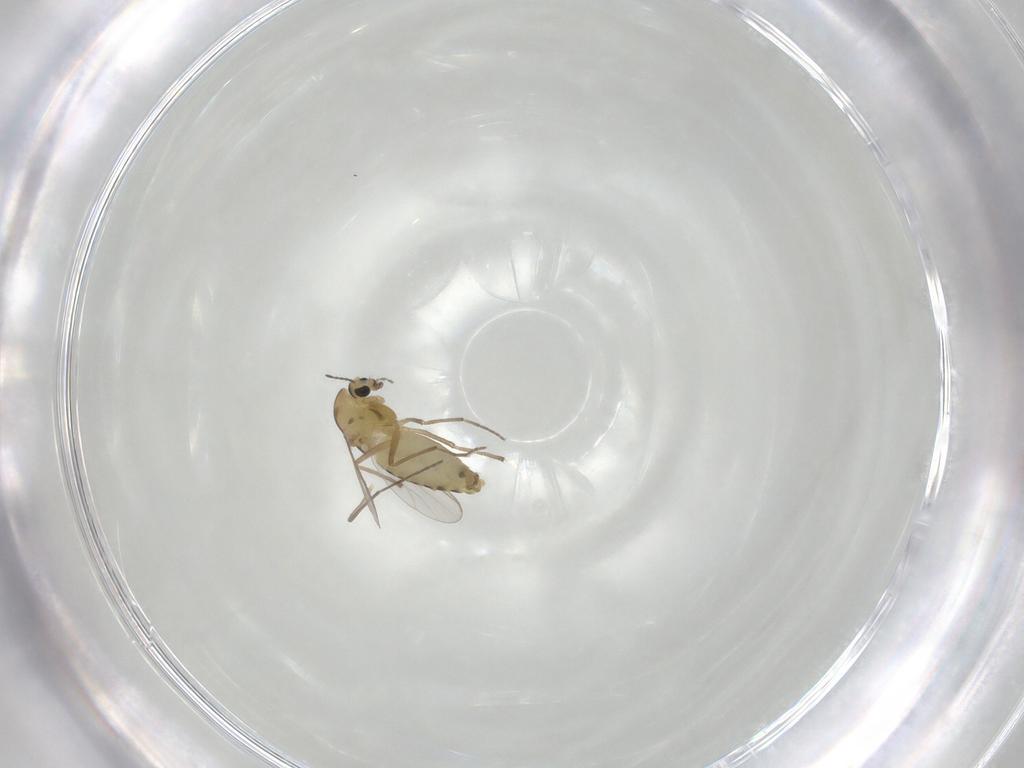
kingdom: Animalia
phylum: Arthropoda
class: Insecta
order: Diptera
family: Chironomidae
